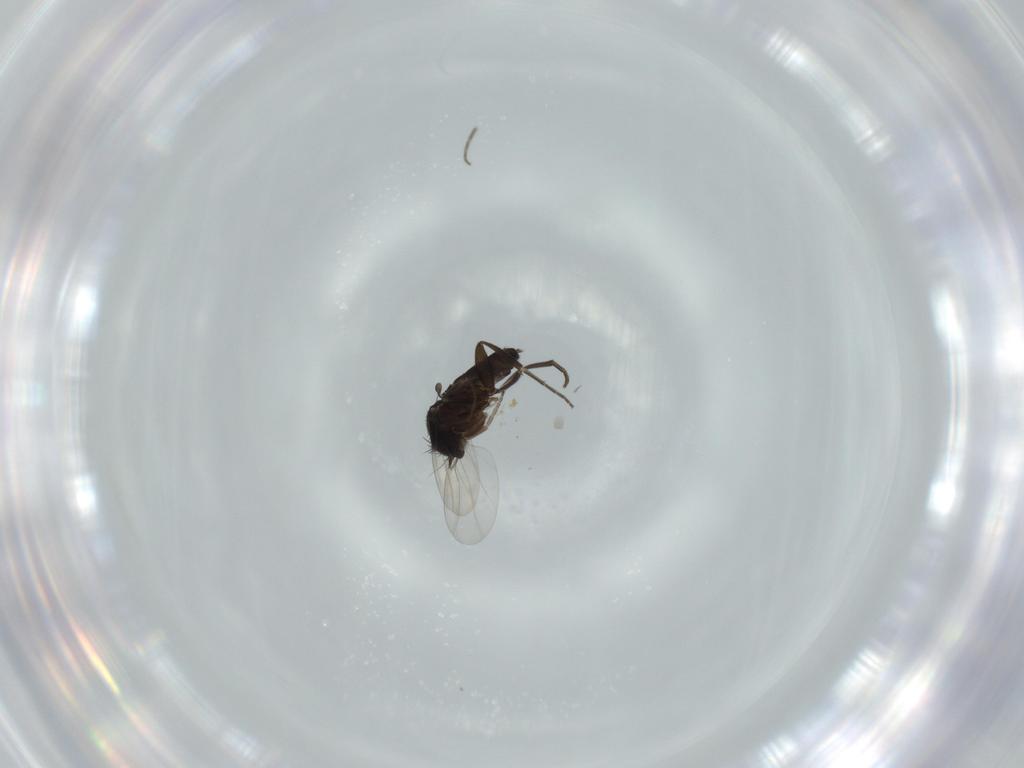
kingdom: Animalia
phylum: Arthropoda
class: Insecta
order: Diptera
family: Phoridae
